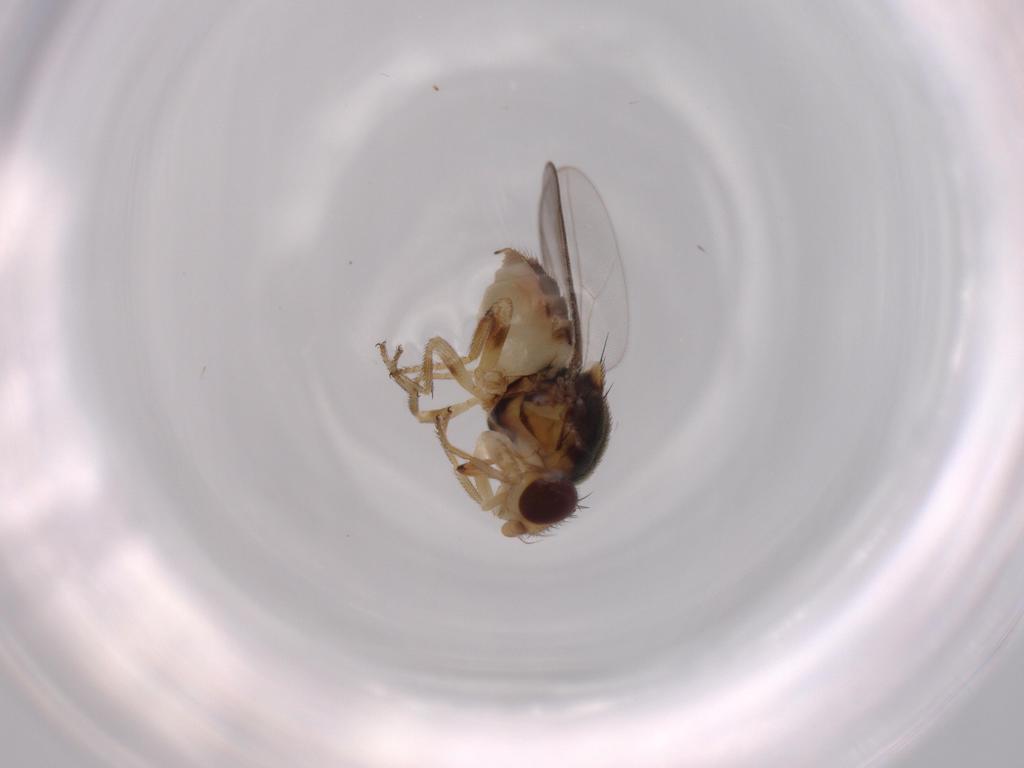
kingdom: Animalia
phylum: Arthropoda
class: Insecta
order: Diptera
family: Chloropidae
